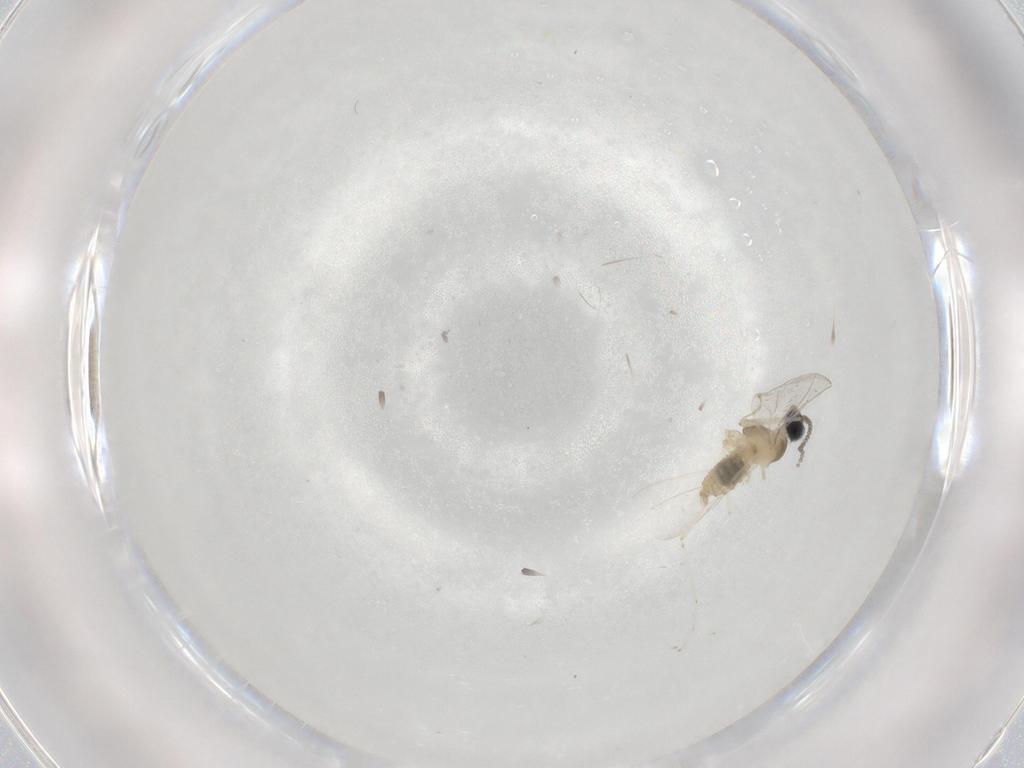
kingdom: Animalia
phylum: Arthropoda
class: Insecta
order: Diptera
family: Cecidomyiidae
